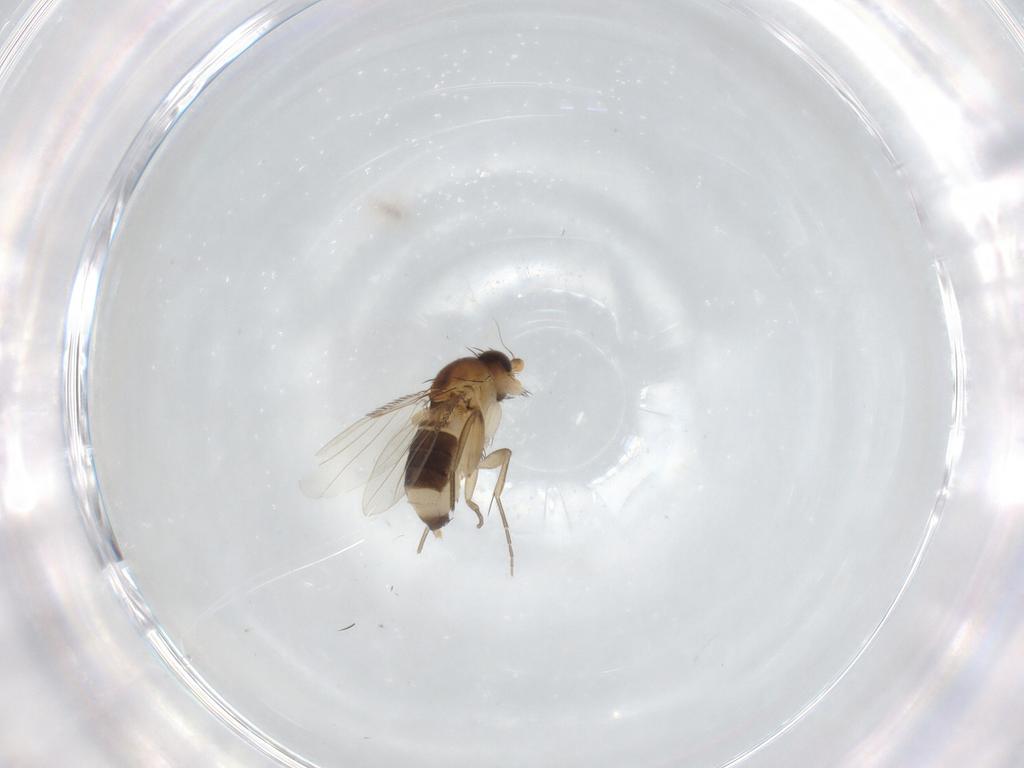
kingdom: Animalia
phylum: Arthropoda
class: Insecta
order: Diptera
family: Phoridae
